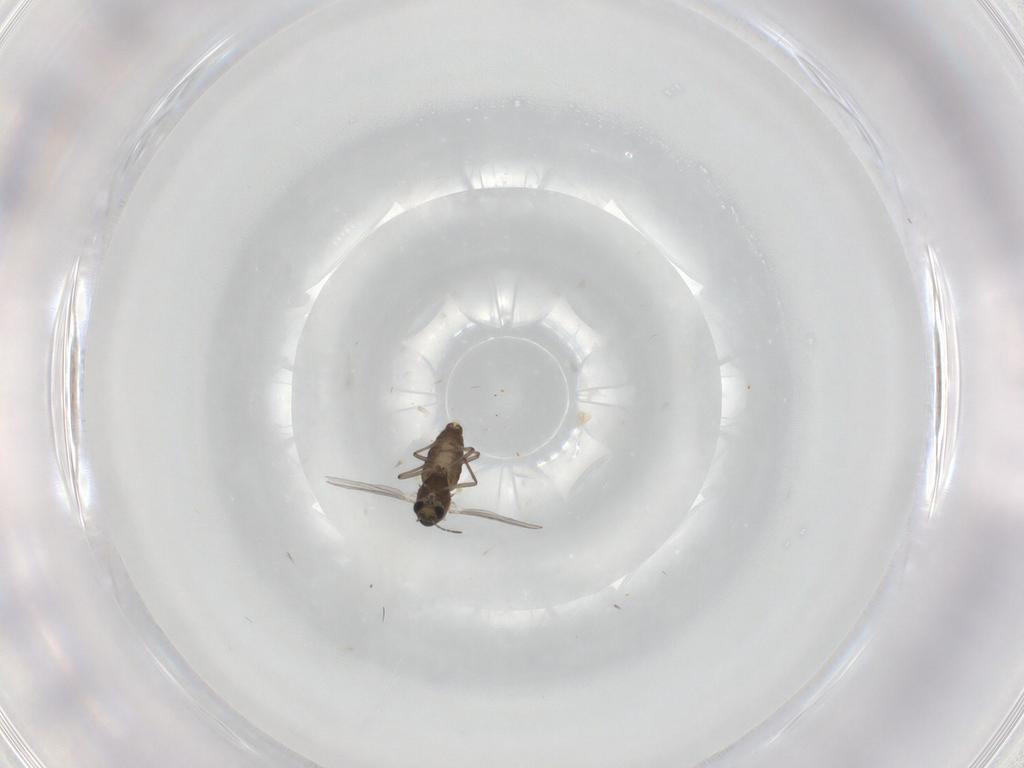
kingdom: Animalia
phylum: Arthropoda
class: Insecta
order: Diptera
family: Chironomidae
